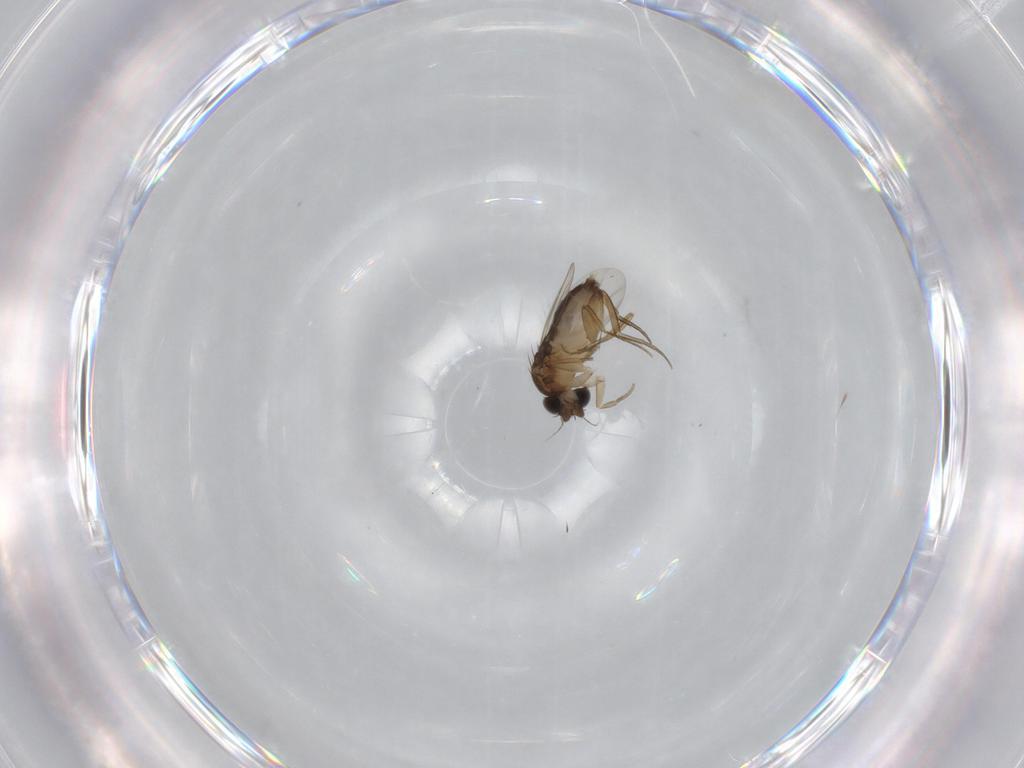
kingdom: Animalia
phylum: Arthropoda
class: Insecta
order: Diptera
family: Phoridae
